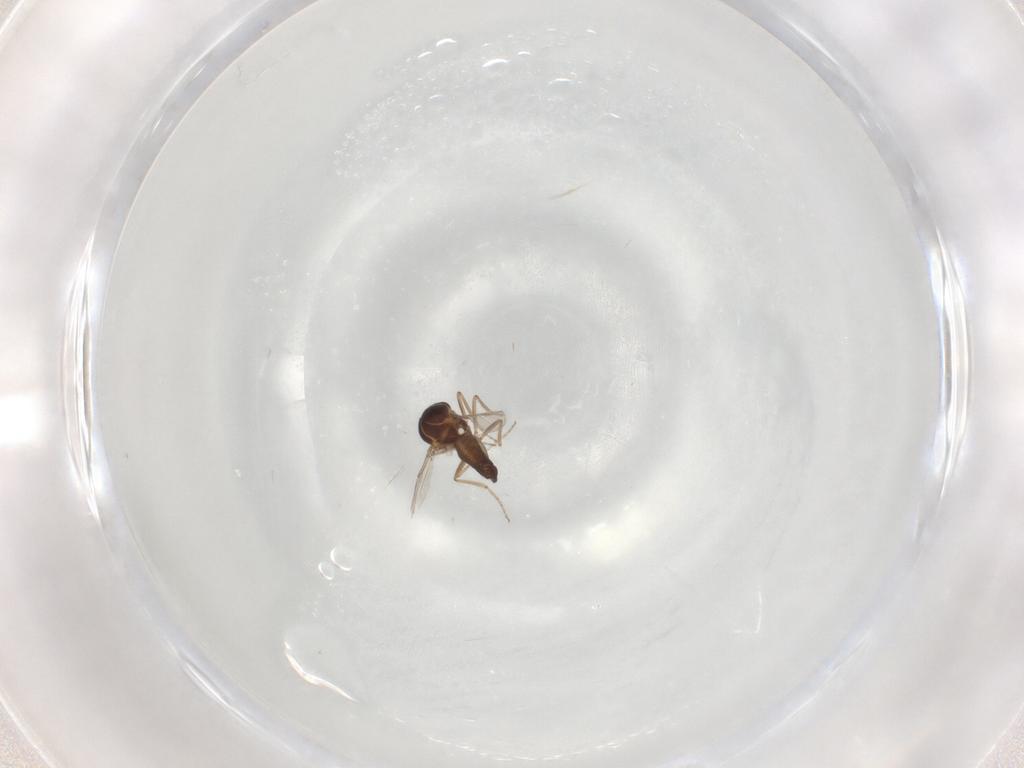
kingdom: Animalia
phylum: Arthropoda
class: Insecta
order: Diptera
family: Ceratopogonidae
